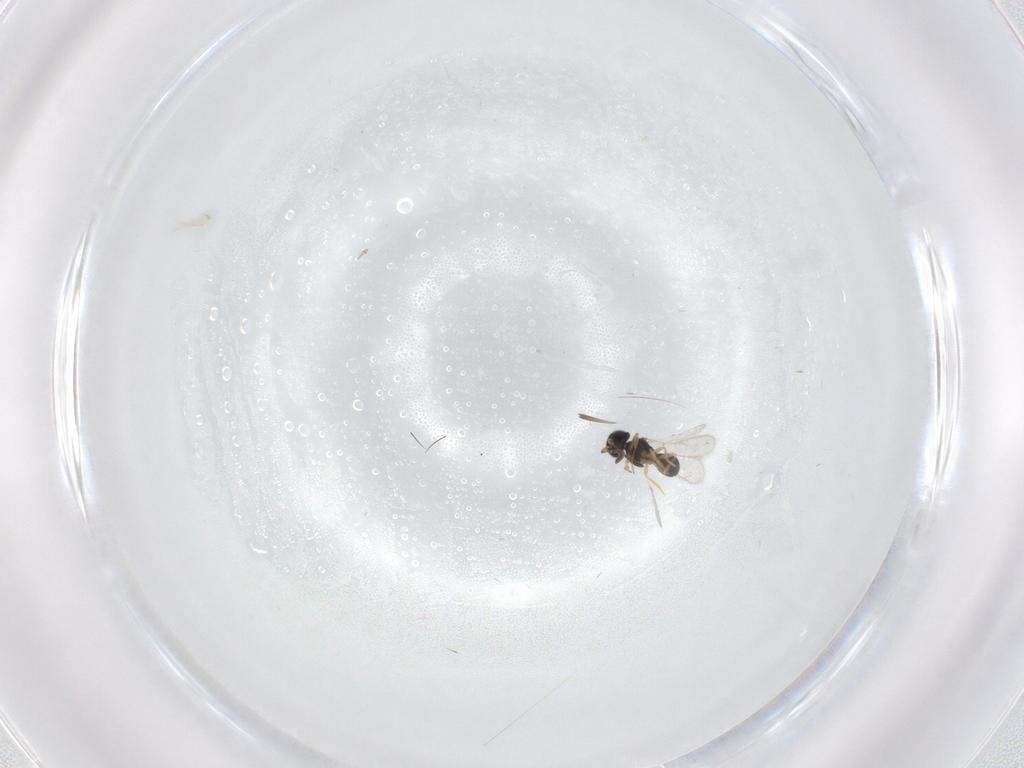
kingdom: Animalia
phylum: Arthropoda
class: Insecta
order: Hymenoptera
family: Scelionidae
